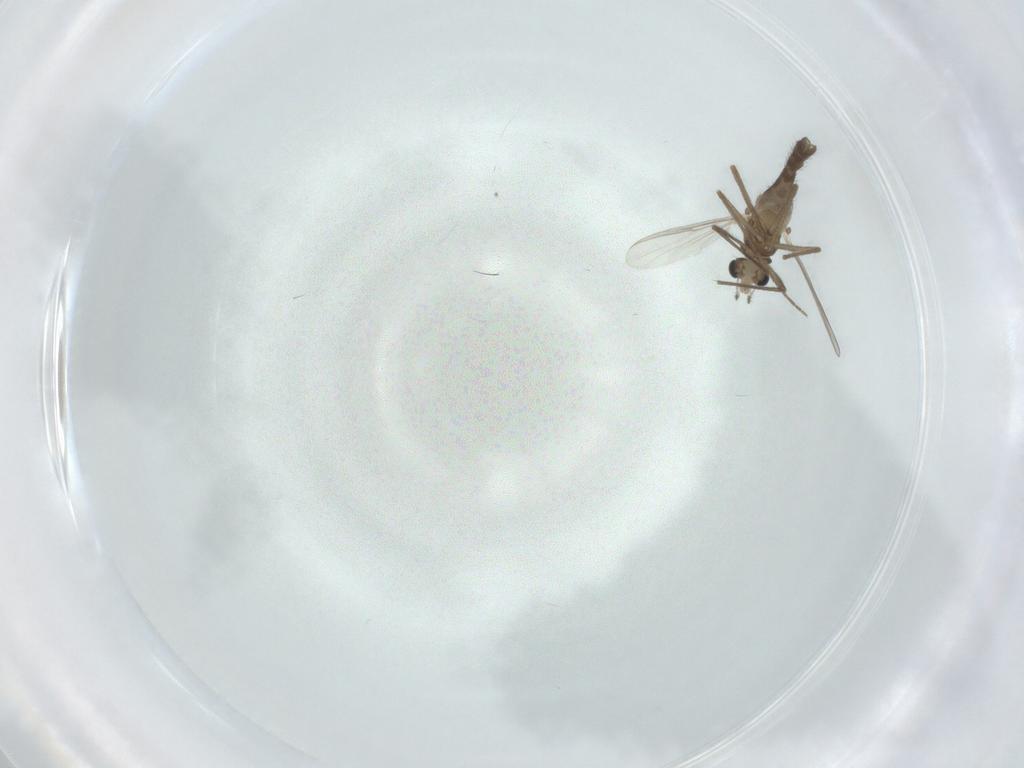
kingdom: Animalia
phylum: Arthropoda
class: Insecta
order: Diptera
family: Chironomidae
